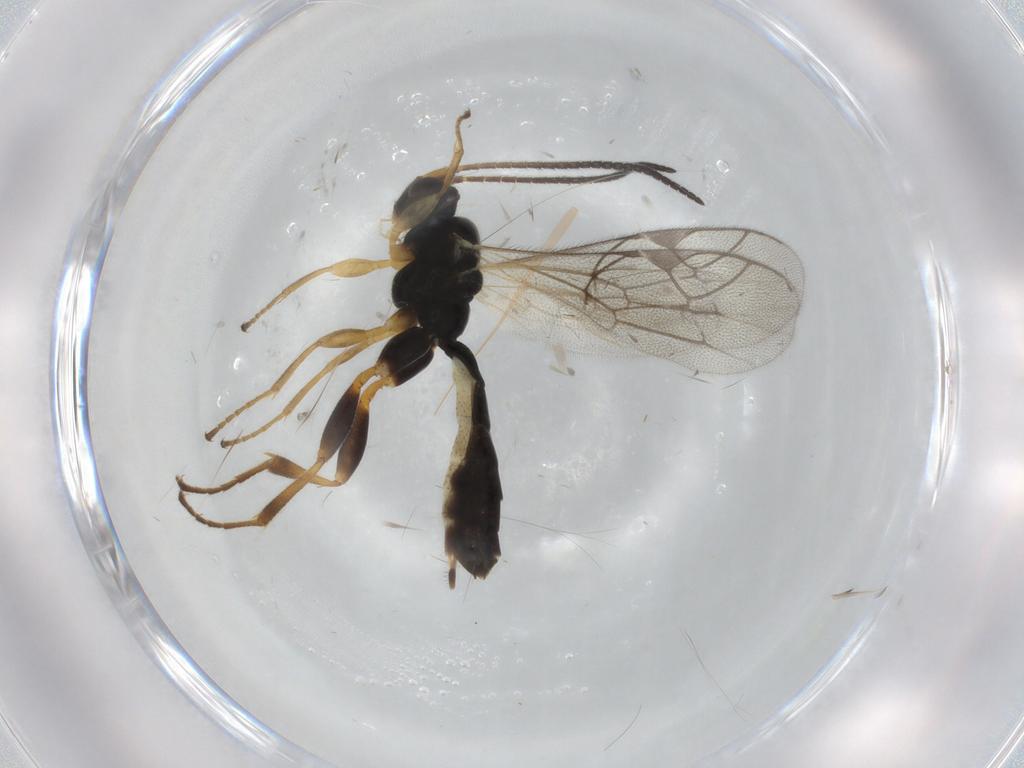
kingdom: Animalia
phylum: Arthropoda
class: Insecta
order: Hymenoptera
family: Ichneumonidae
